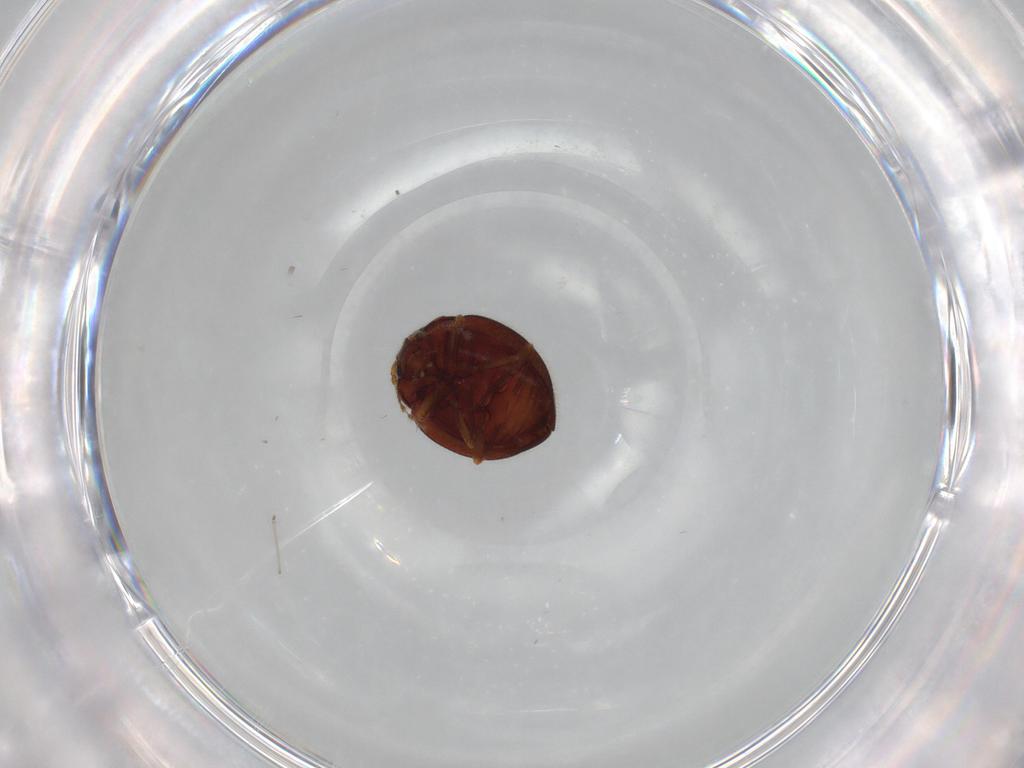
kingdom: Animalia
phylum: Arthropoda
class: Insecta
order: Coleoptera
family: Anamorphidae
